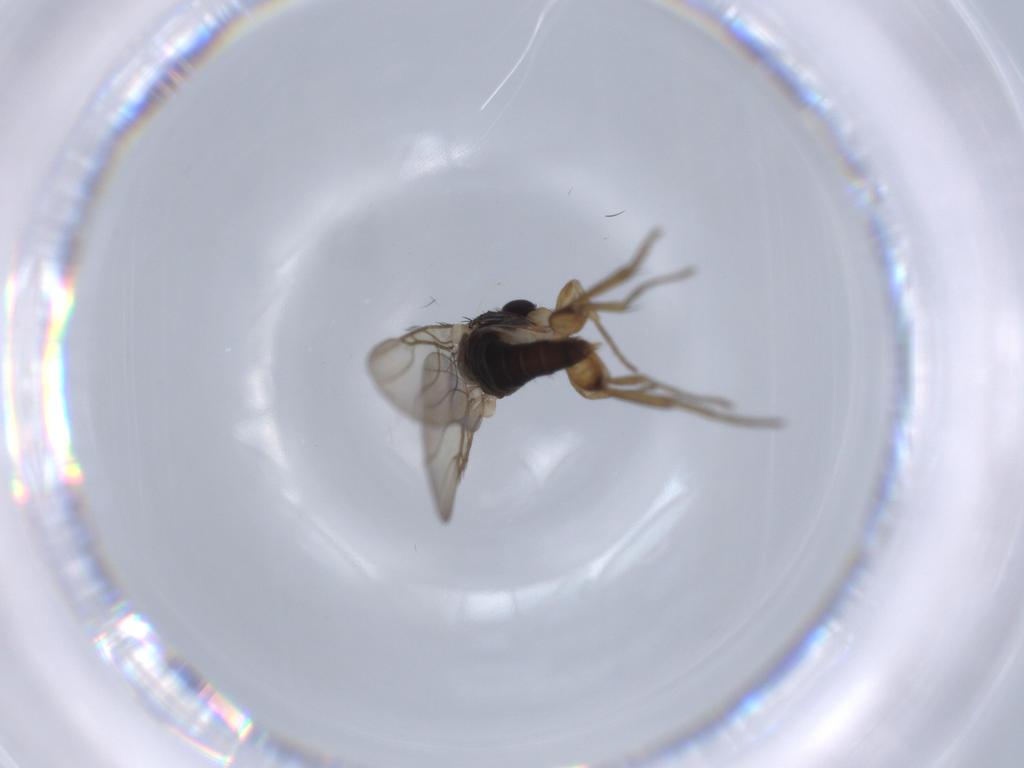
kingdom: Animalia
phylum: Arthropoda
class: Insecta
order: Diptera
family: Phoridae
